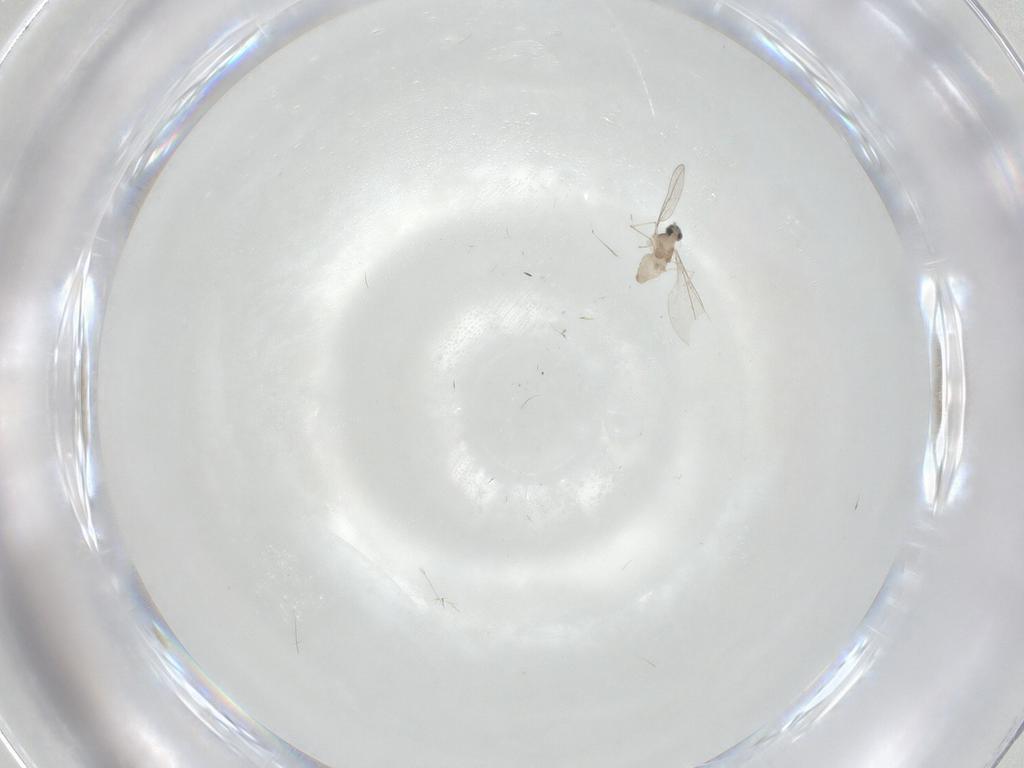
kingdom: Animalia
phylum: Arthropoda
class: Insecta
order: Diptera
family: Cecidomyiidae
